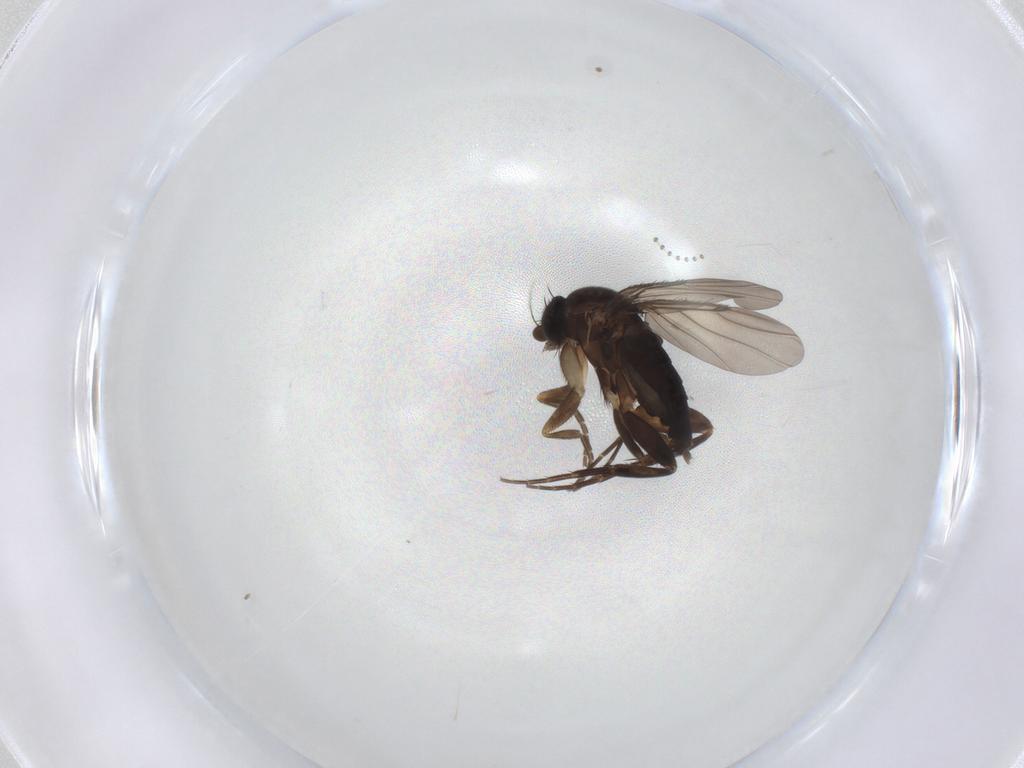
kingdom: Animalia
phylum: Arthropoda
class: Insecta
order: Diptera
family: Phoridae
